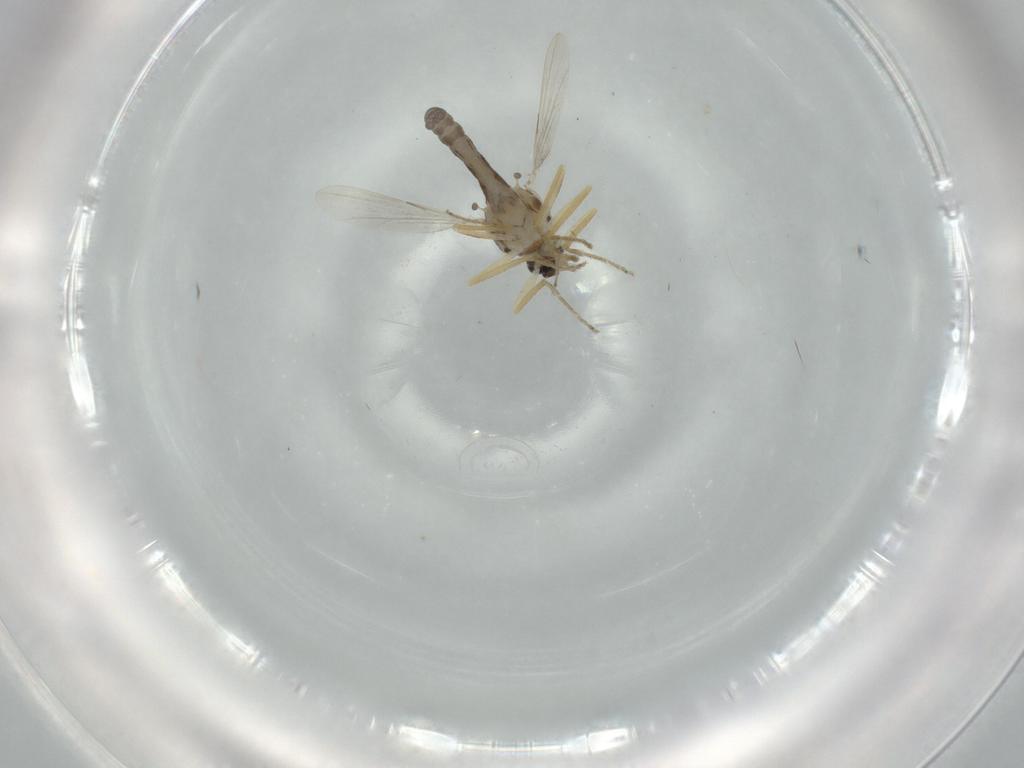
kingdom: Animalia
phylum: Arthropoda
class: Insecta
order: Diptera
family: Ceratopogonidae
